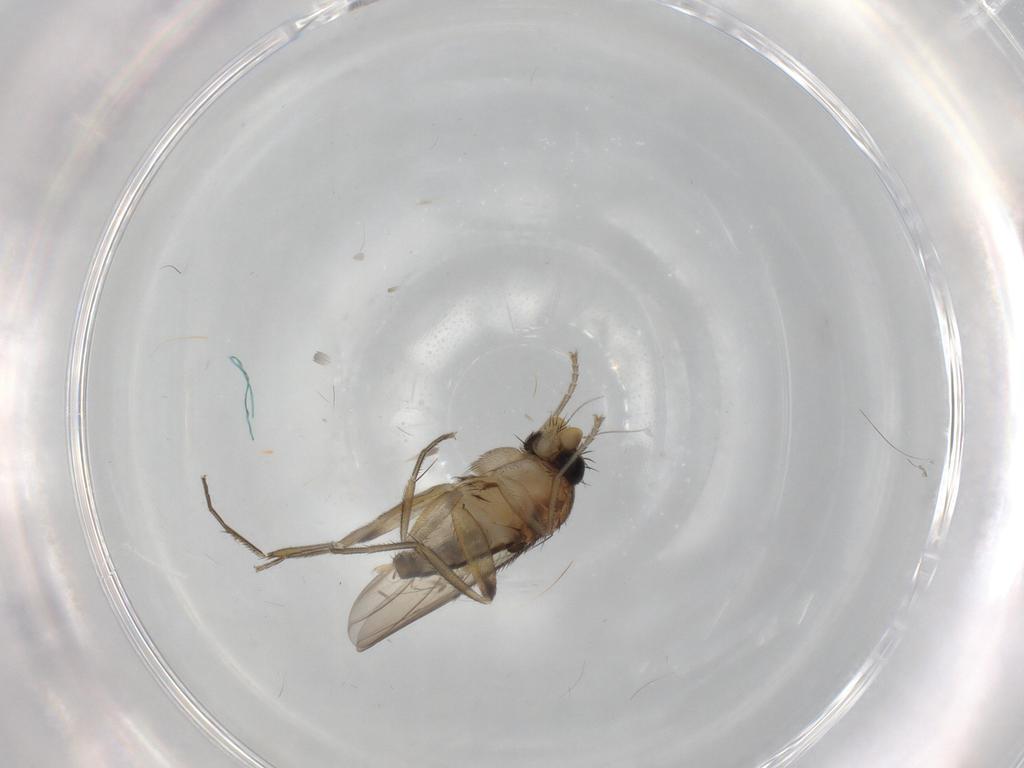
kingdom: Animalia
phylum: Arthropoda
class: Insecta
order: Diptera
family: Phoridae
